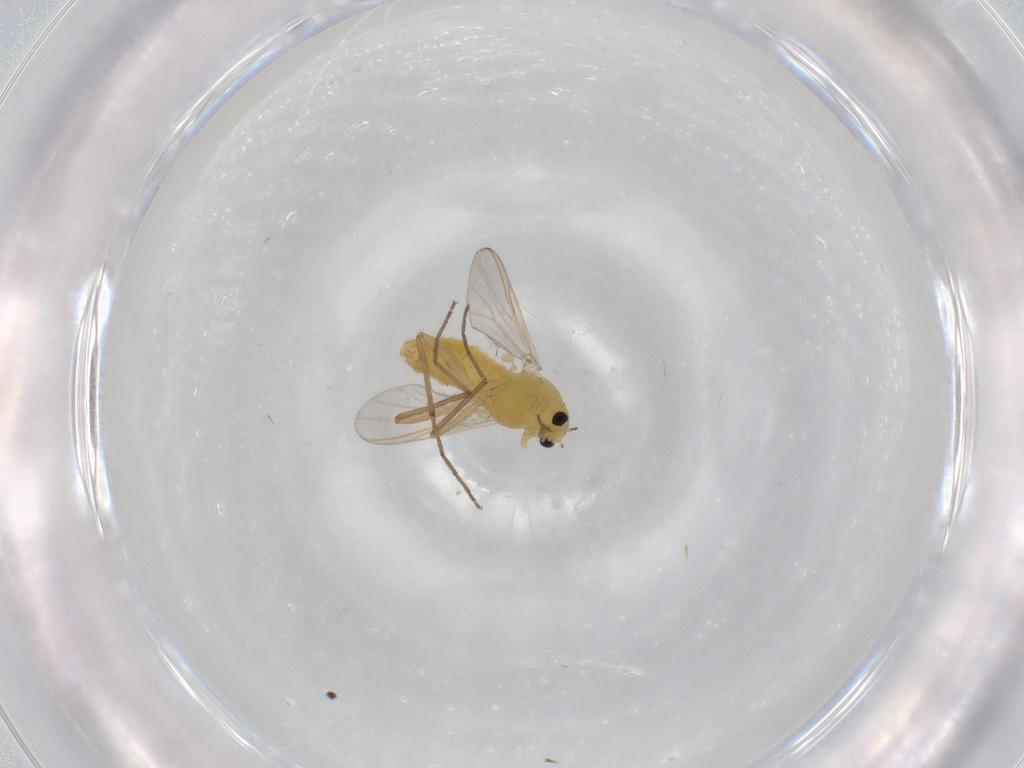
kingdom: Animalia
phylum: Arthropoda
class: Insecta
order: Diptera
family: Chironomidae
